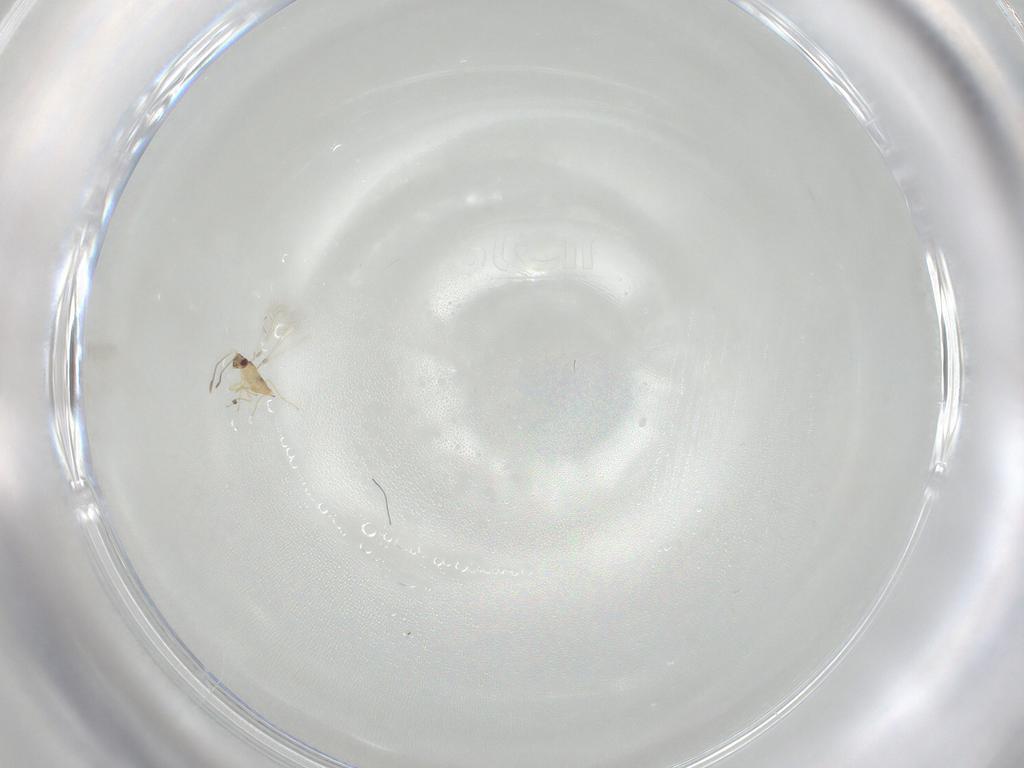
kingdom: Animalia
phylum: Arthropoda
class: Insecta
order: Hymenoptera
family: Mymaridae
